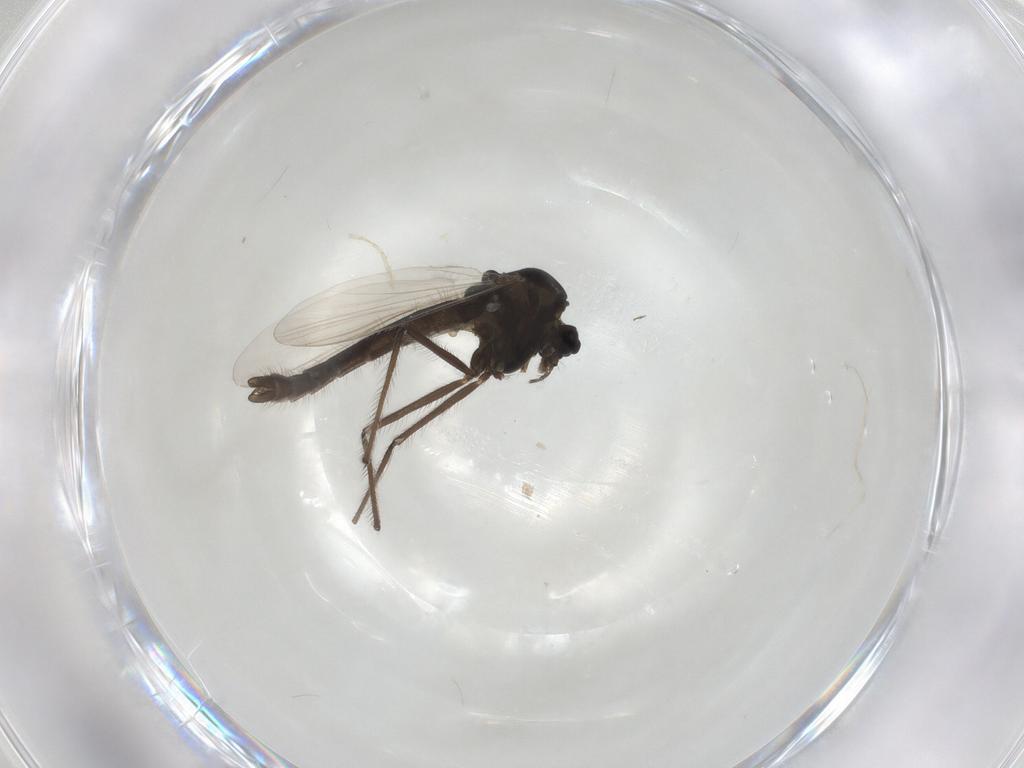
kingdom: Animalia
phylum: Arthropoda
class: Insecta
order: Diptera
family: Chironomidae
